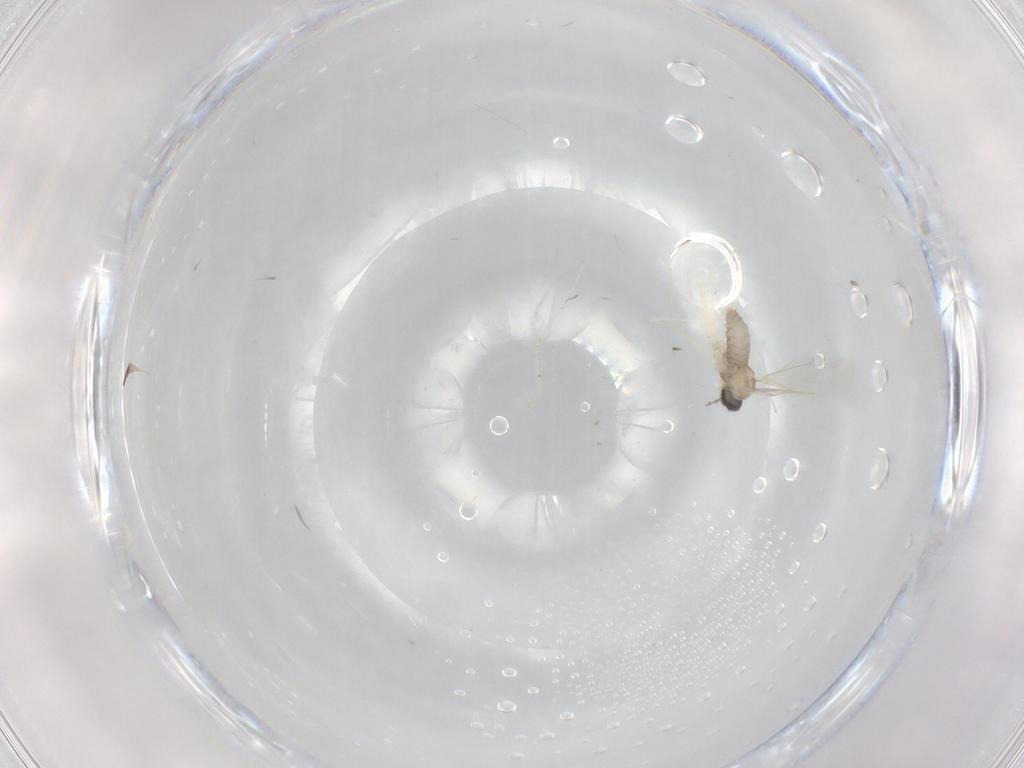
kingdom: Animalia
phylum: Arthropoda
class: Insecta
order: Diptera
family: Cecidomyiidae
